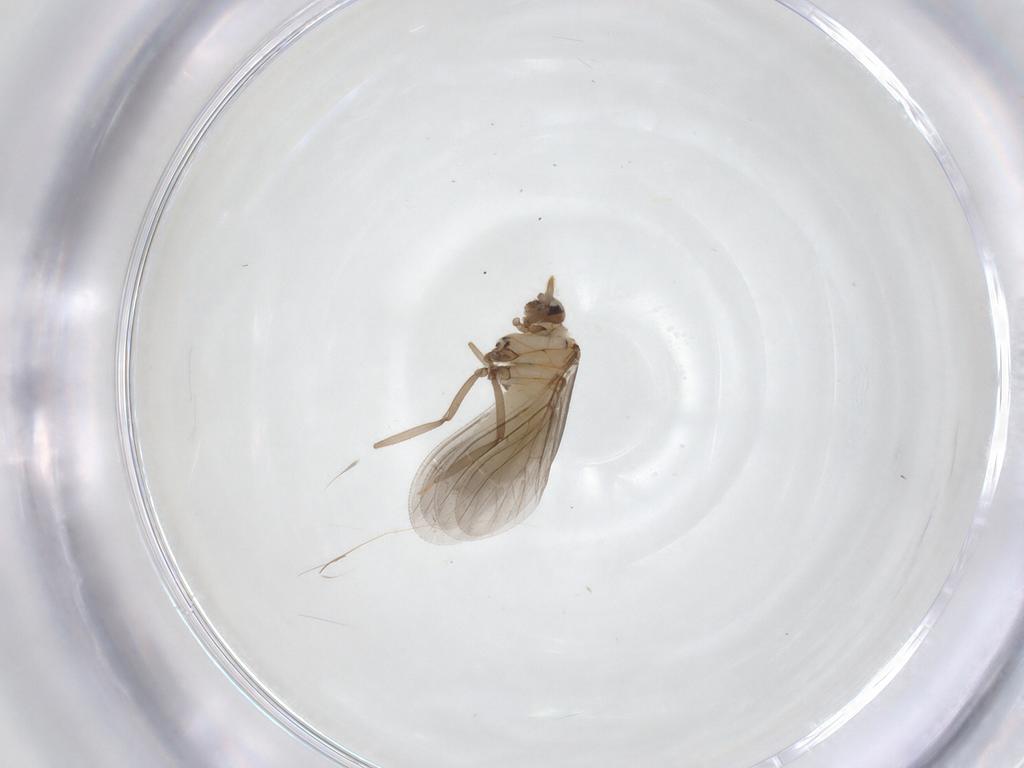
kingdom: Animalia
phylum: Arthropoda
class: Insecta
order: Neuroptera
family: Coniopterygidae
